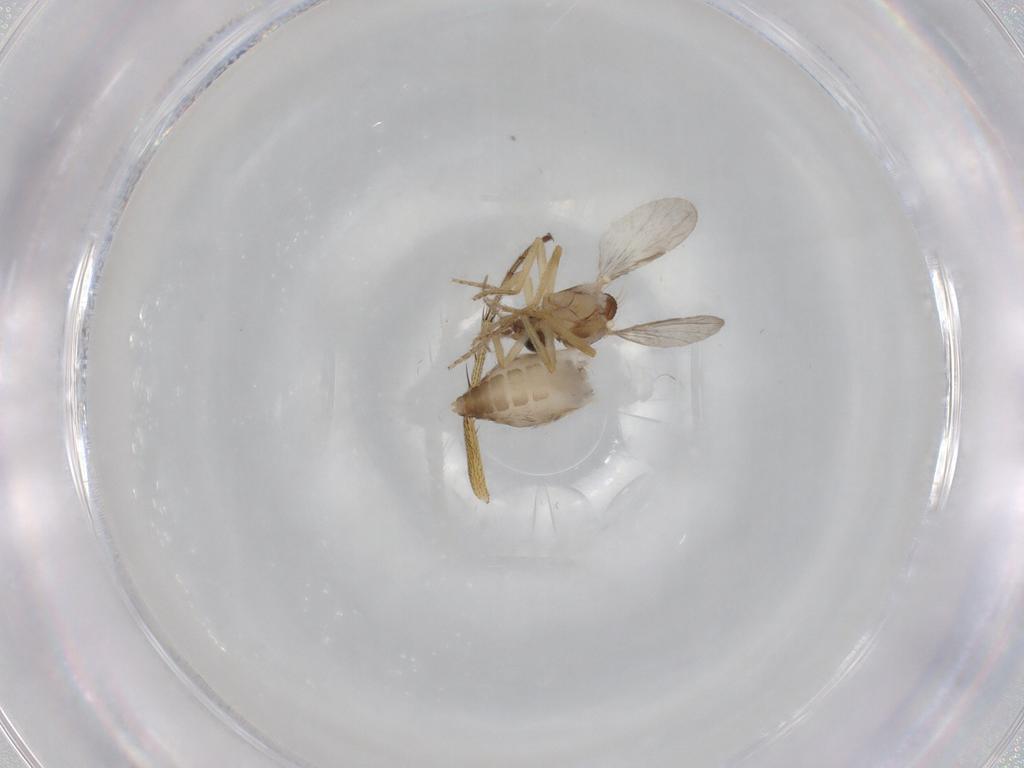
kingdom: Animalia
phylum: Arthropoda
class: Insecta
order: Diptera
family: Ceratopogonidae
